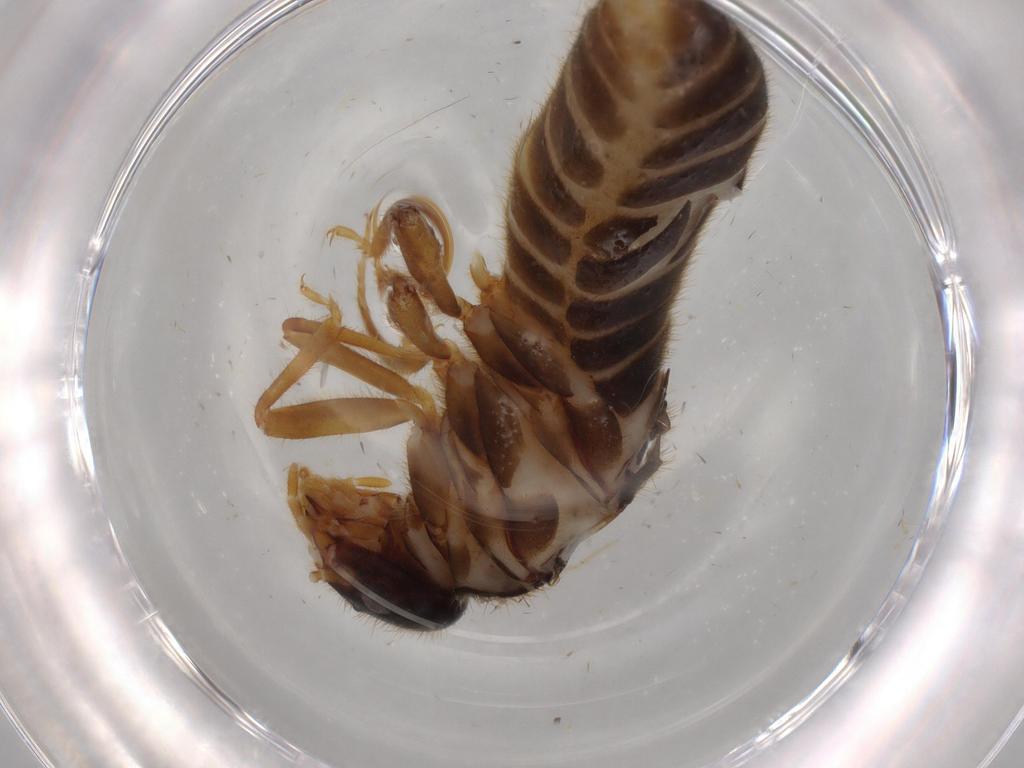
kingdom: Animalia
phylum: Arthropoda
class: Insecta
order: Blattodea
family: Termitidae
